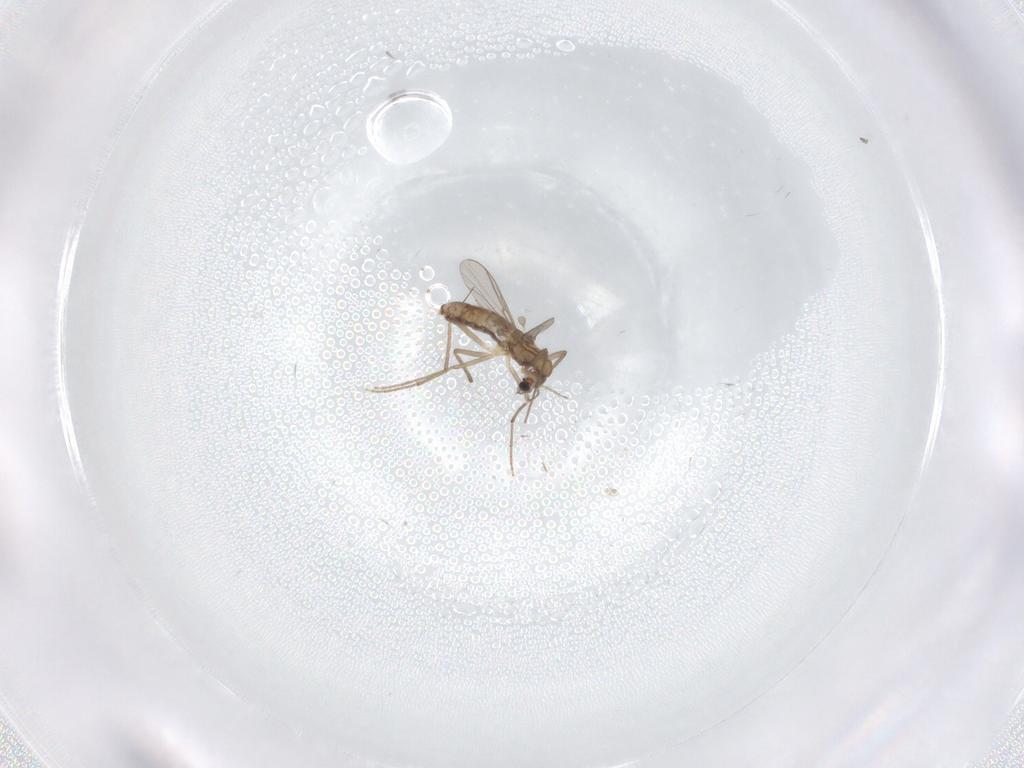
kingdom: Animalia
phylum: Arthropoda
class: Insecta
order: Diptera
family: Chironomidae
